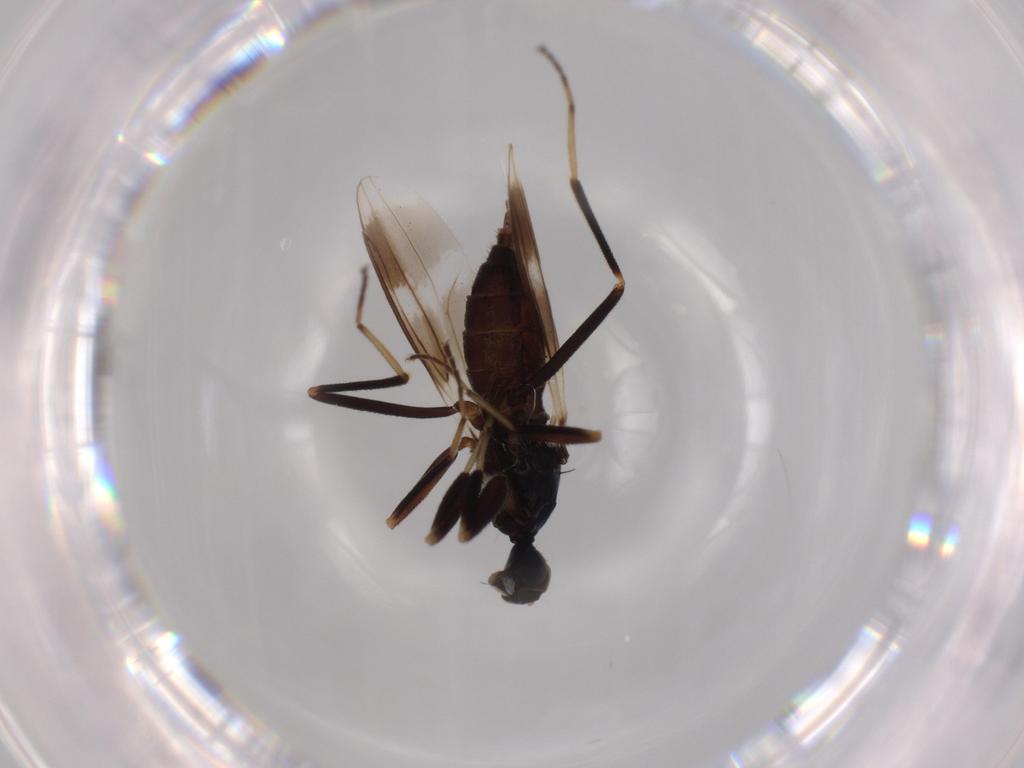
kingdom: Animalia
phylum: Arthropoda
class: Insecta
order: Diptera
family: Hybotidae
